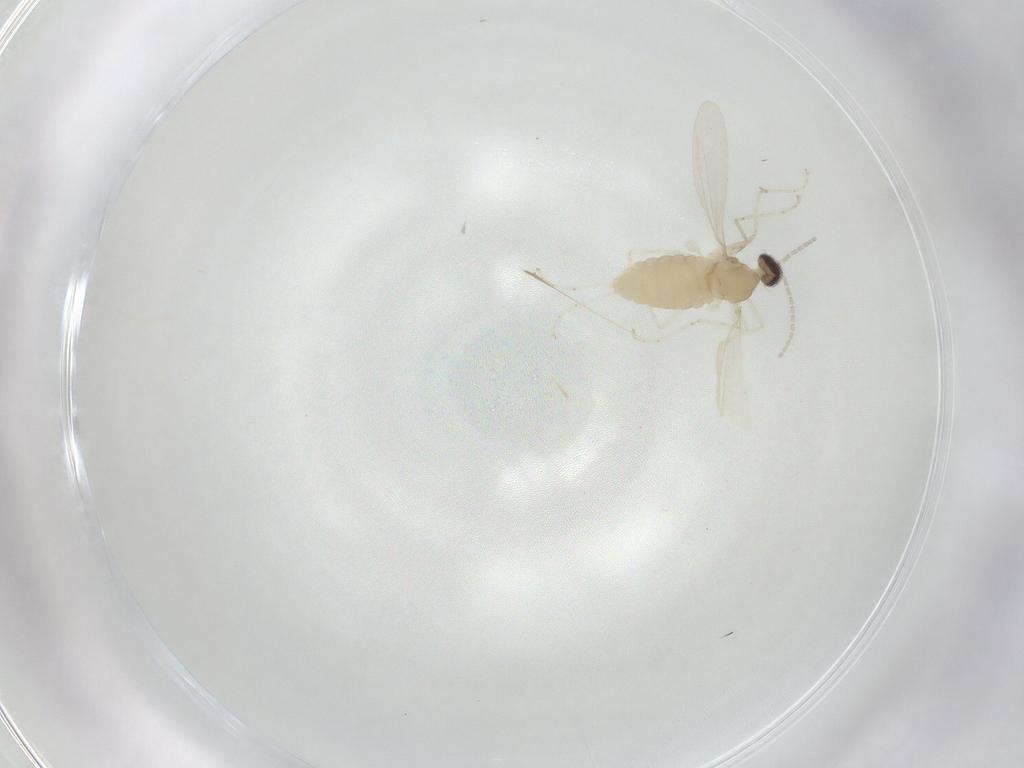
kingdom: Animalia
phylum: Arthropoda
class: Insecta
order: Diptera
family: Cecidomyiidae
